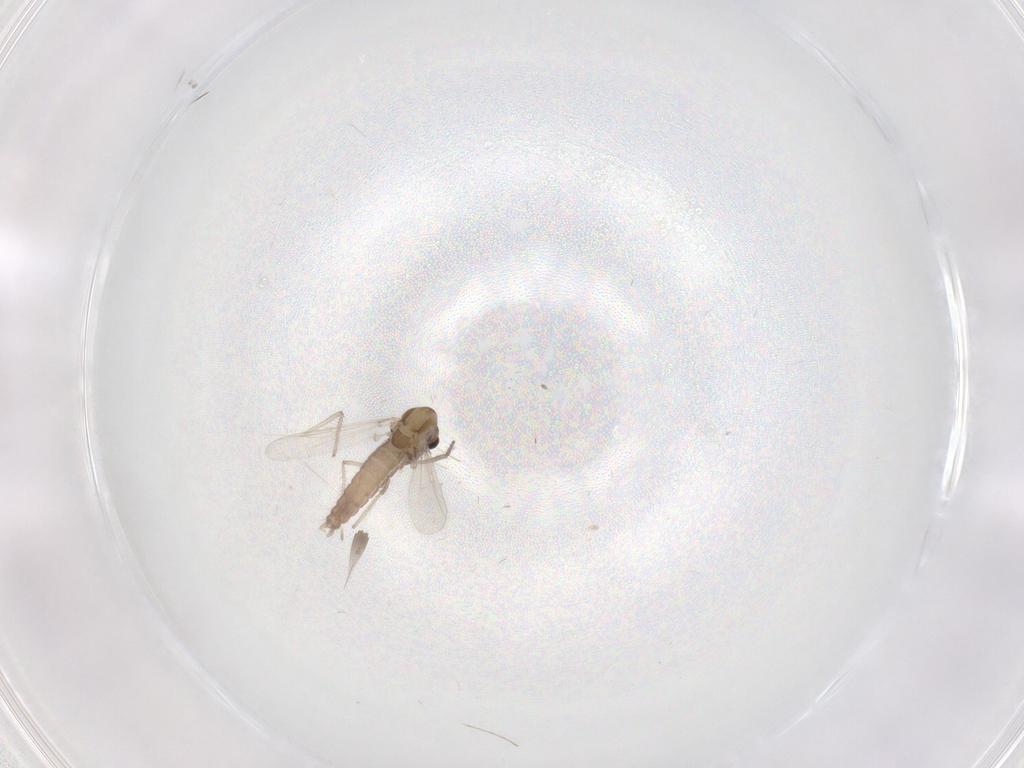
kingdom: Animalia
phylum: Arthropoda
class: Insecta
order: Diptera
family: Chironomidae
